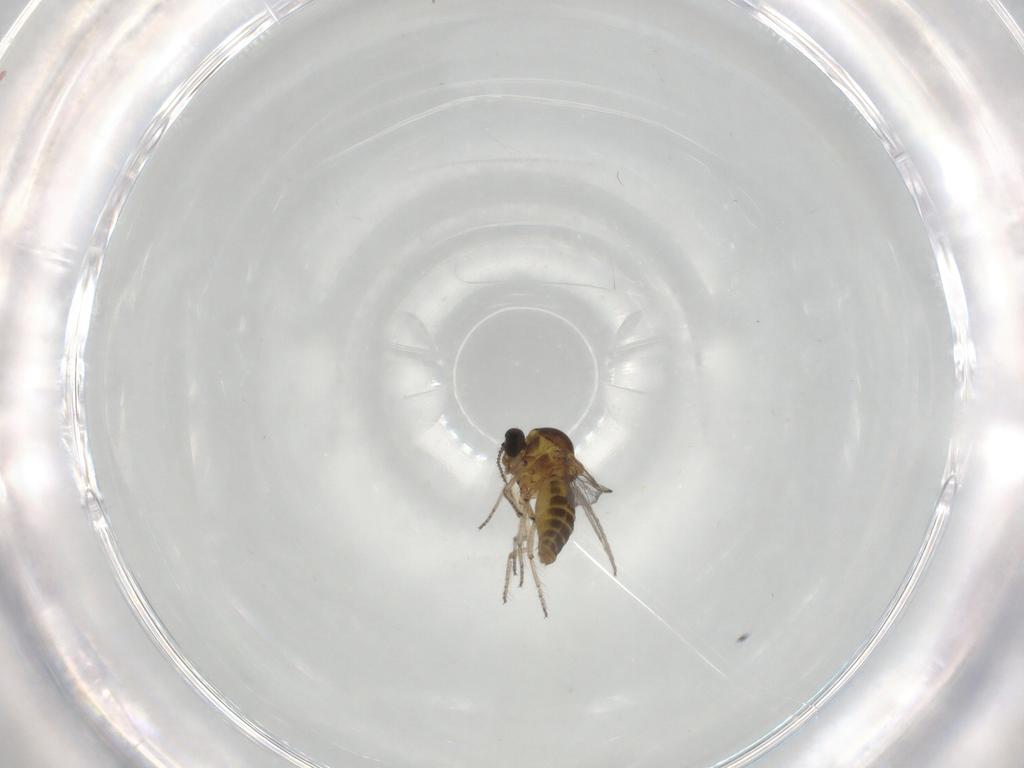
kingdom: Animalia
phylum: Arthropoda
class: Insecta
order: Diptera
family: Ceratopogonidae
